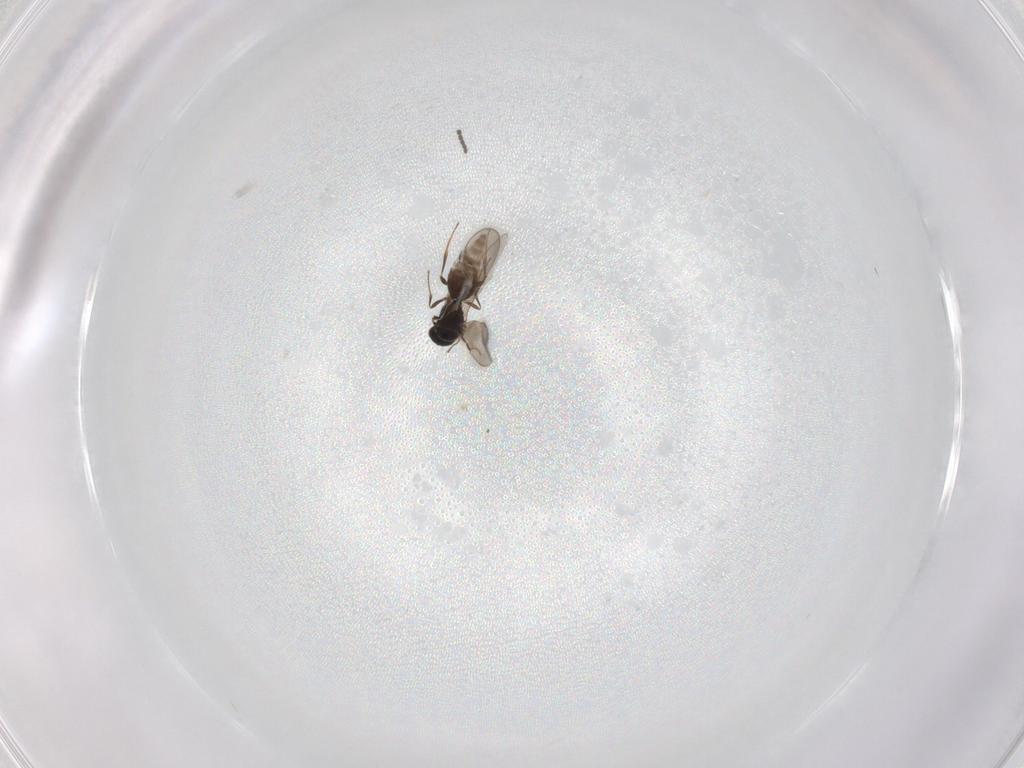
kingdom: Animalia
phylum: Arthropoda
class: Insecta
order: Hymenoptera
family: Ceraphronidae
